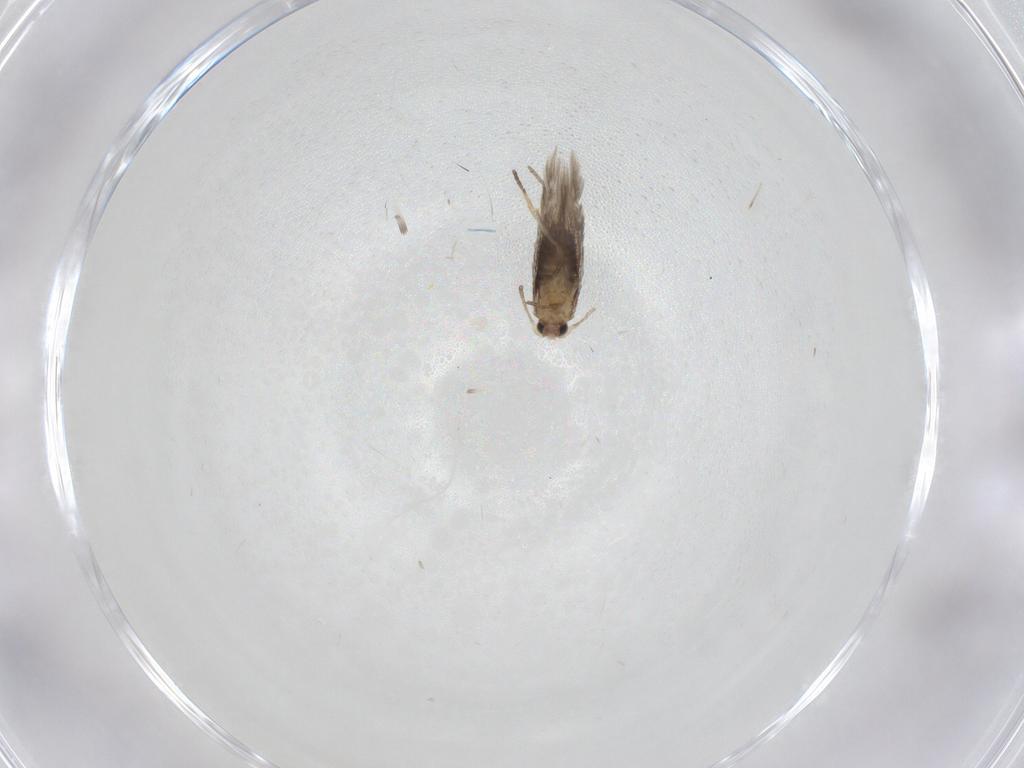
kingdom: Animalia
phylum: Arthropoda
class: Insecta
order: Lepidoptera
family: Nepticulidae
